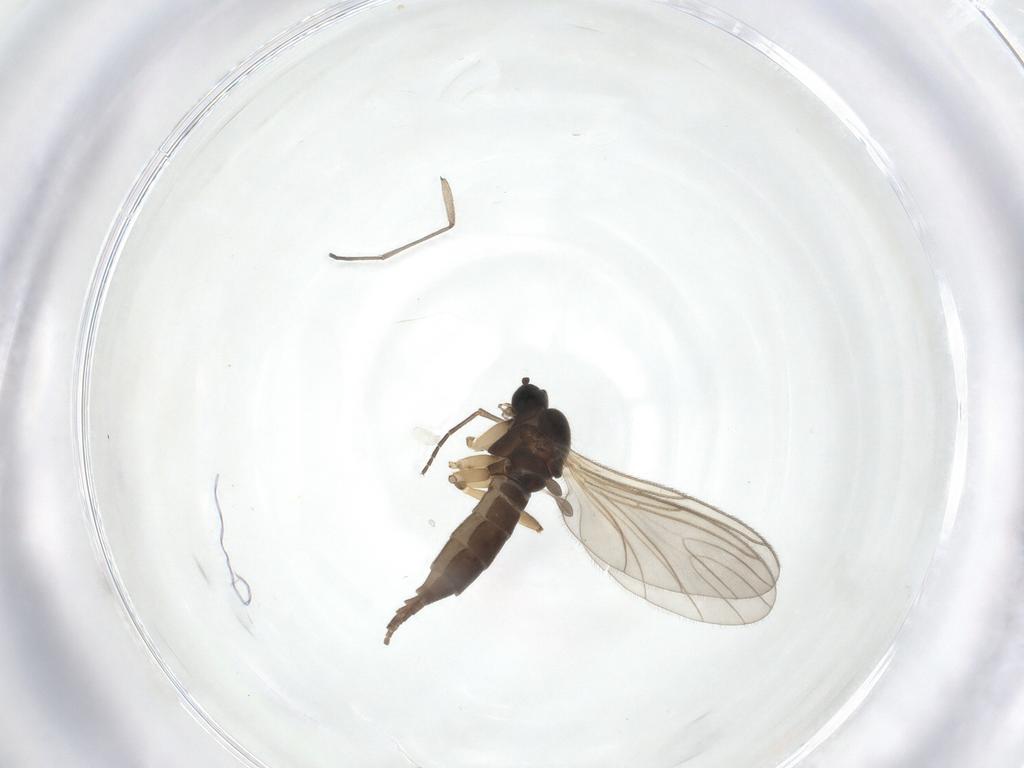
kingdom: Animalia
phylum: Arthropoda
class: Insecta
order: Diptera
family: Sciaridae
